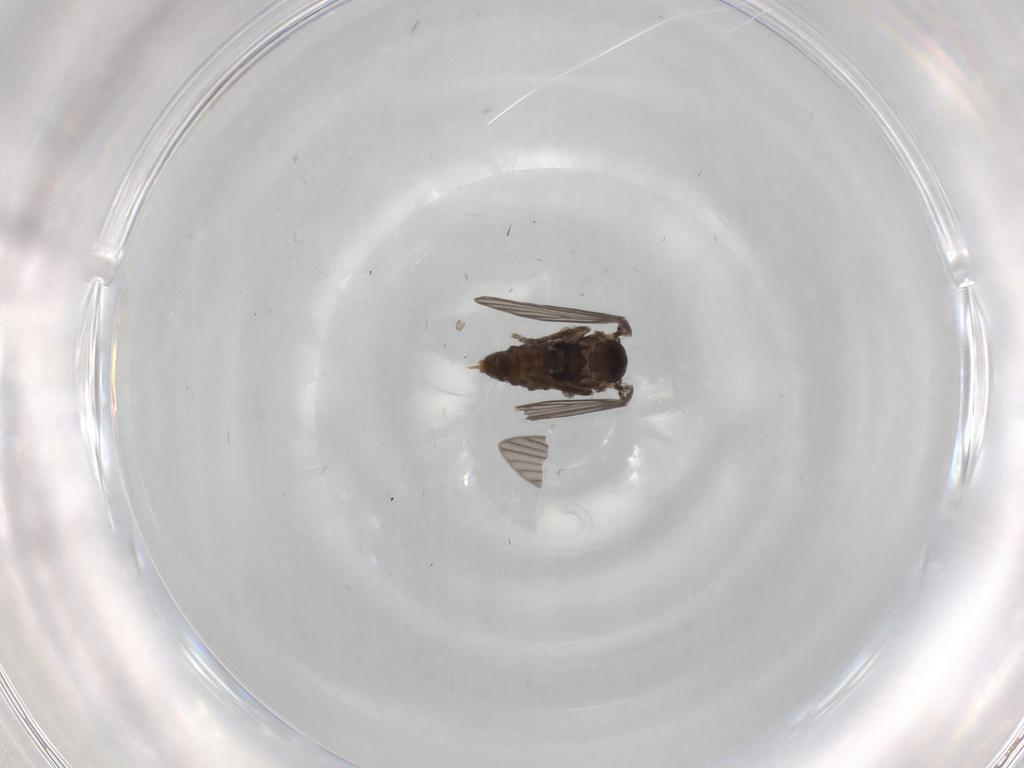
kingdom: Animalia
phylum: Arthropoda
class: Insecta
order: Diptera
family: Psychodidae
